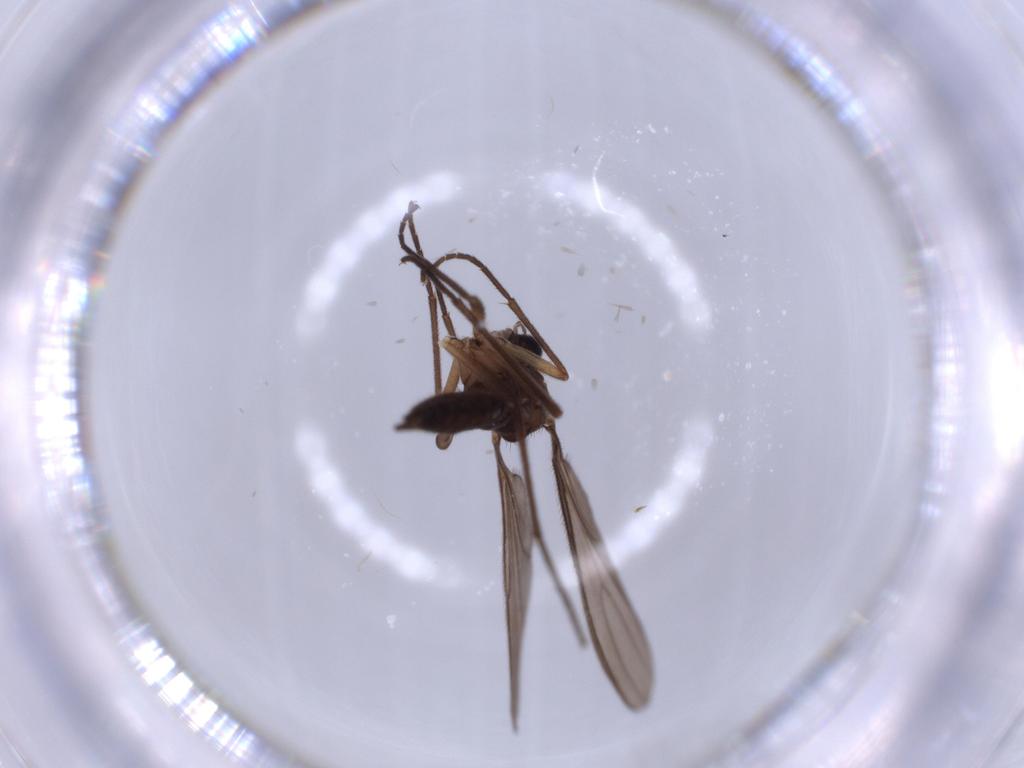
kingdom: Animalia
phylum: Arthropoda
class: Insecta
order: Diptera
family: Sciaridae
